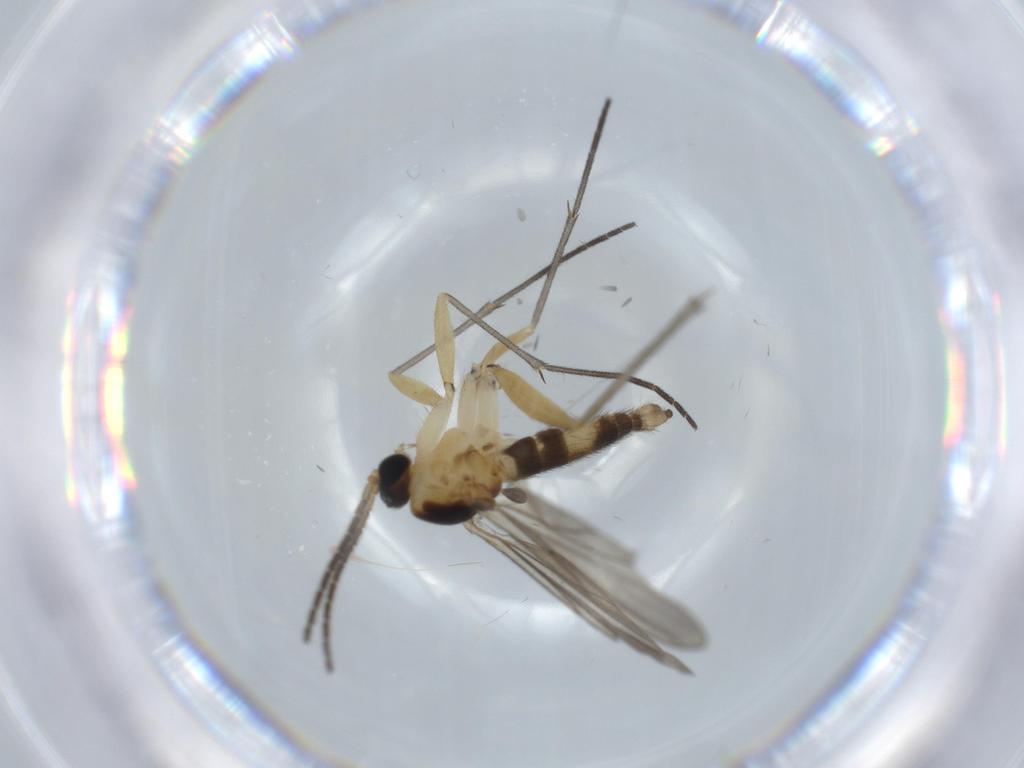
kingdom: Animalia
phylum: Arthropoda
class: Insecta
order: Diptera
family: Sciaridae
